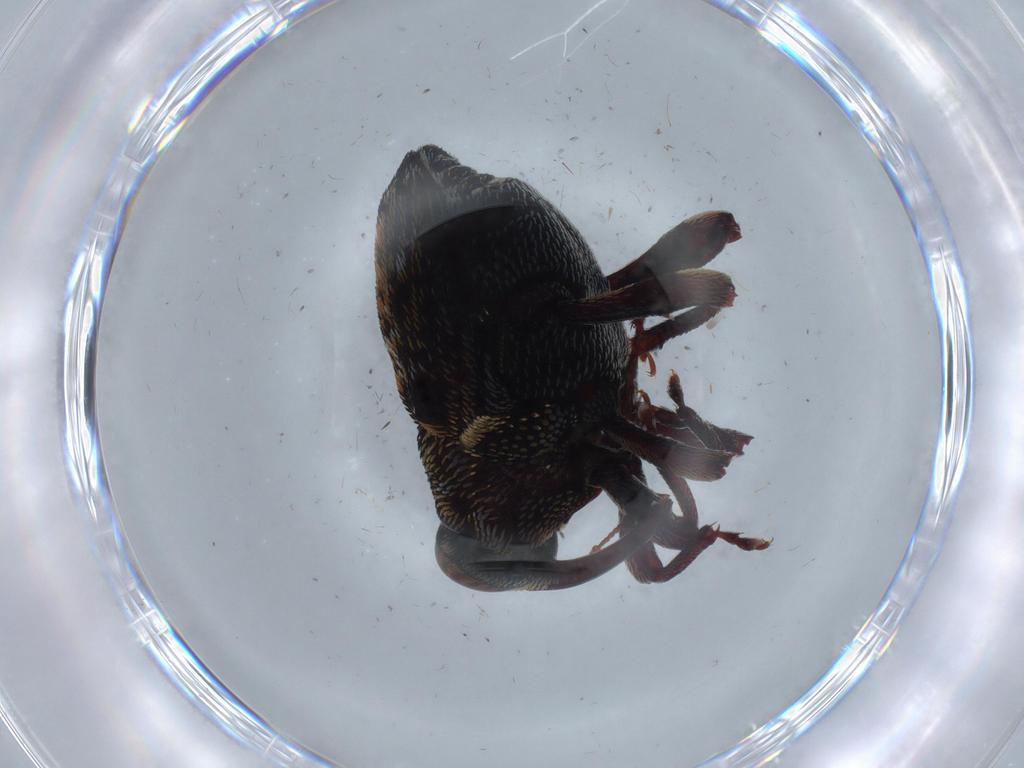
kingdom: Animalia
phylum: Arthropoda
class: Insecta
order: Coleoptera
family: Curculionidae
